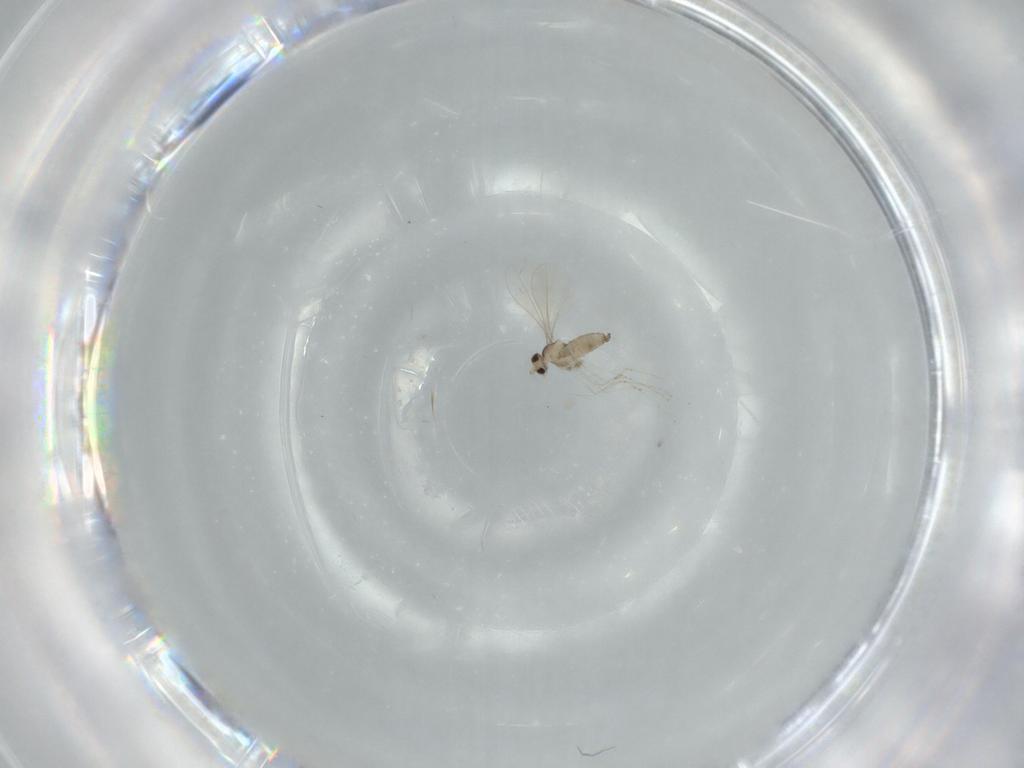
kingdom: Animalia
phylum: Arthropoda
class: Insecta
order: Diptera
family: Cecidomyiidae
